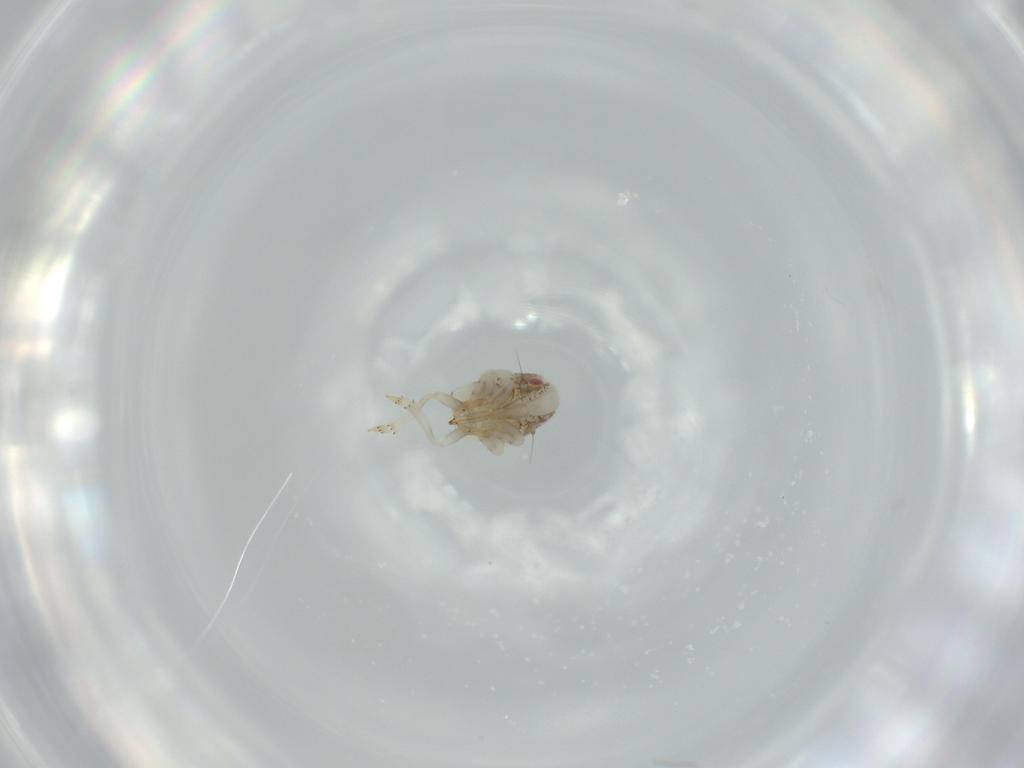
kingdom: Animalia
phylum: Arthropoda
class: Insecta
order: Hemiptera
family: Acanaloniidae
